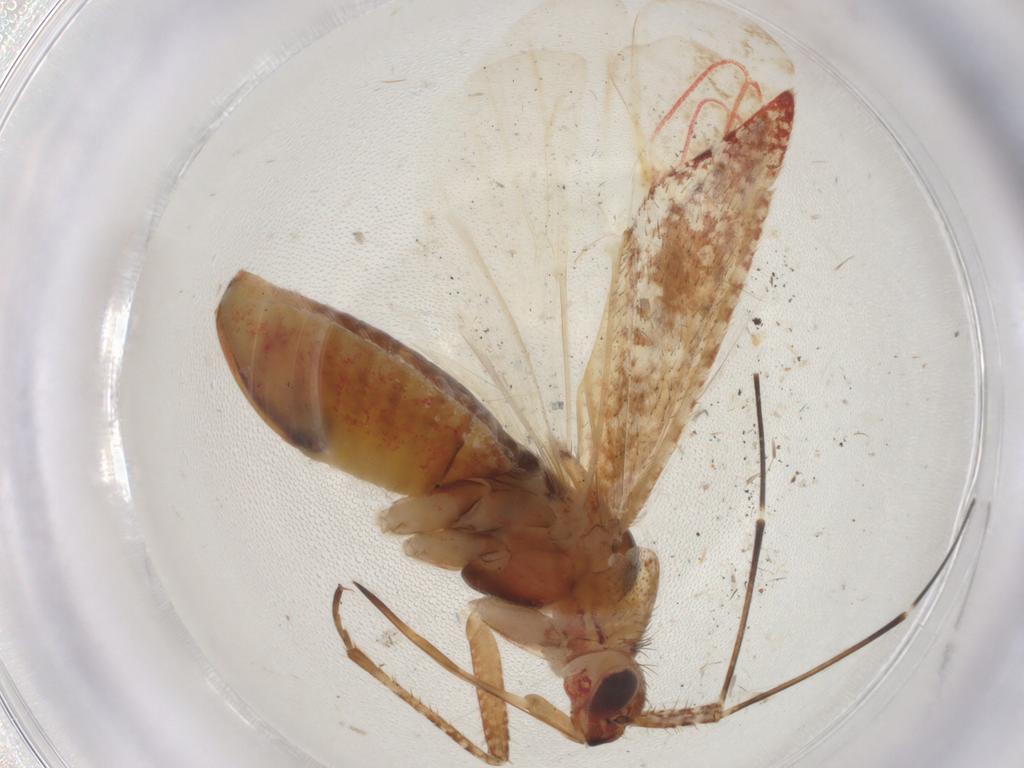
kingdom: Animalia
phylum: Arthropoda
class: Insecta
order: Hemiptera
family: Miridae
